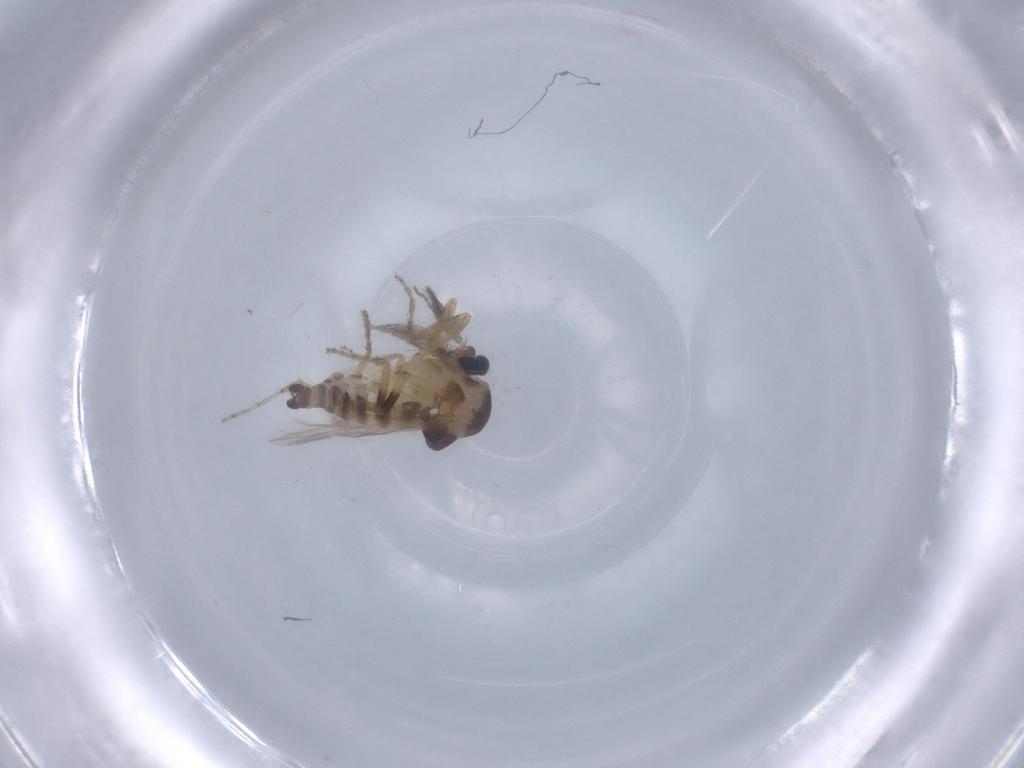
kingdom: Animalia
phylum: Arthropoda
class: Insecta
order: Diptera
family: Ceratopogonidae
